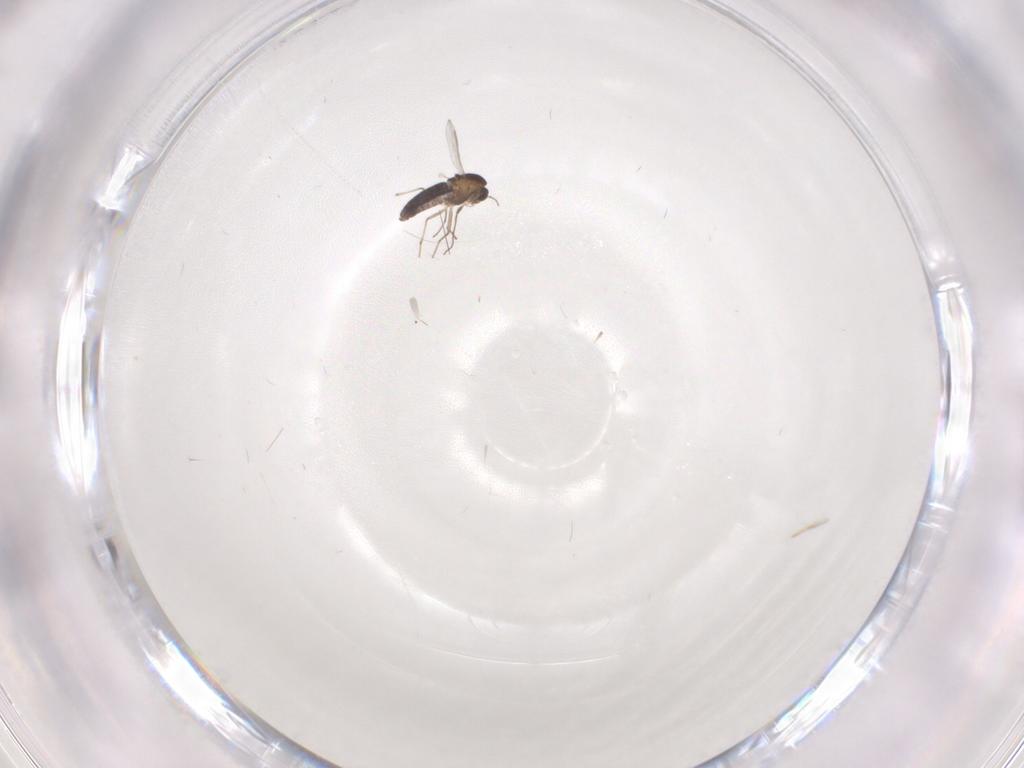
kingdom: Animalia
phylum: Arthropoda
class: Insecta
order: Diptera
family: Chironomidae
